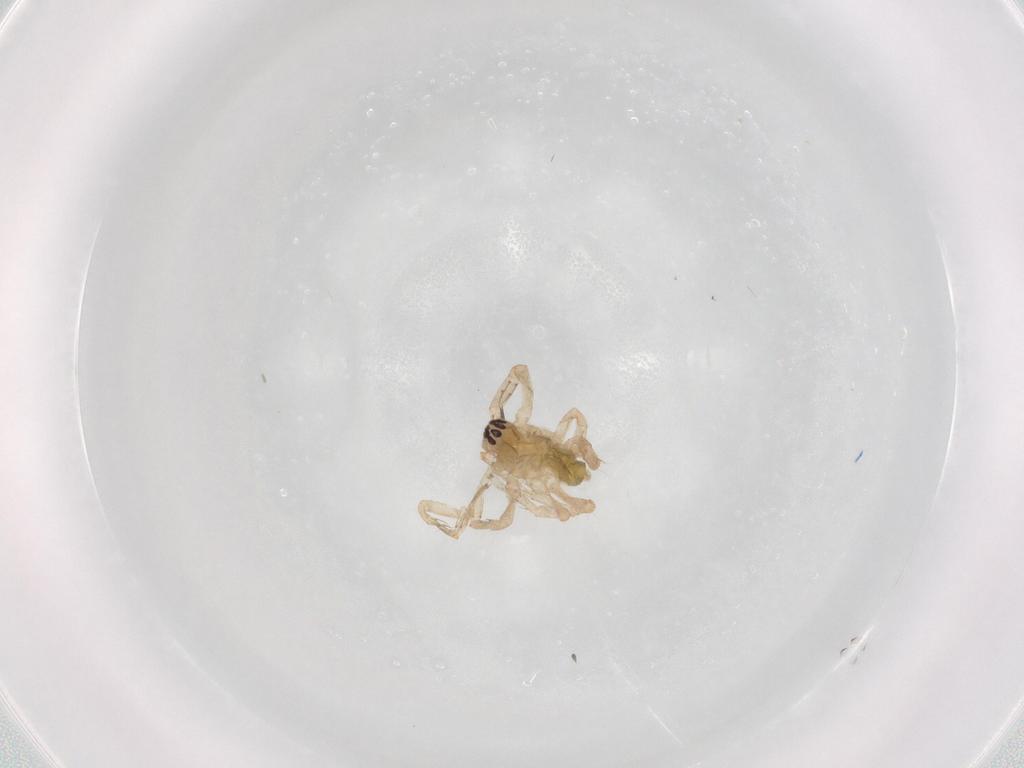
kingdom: Animalia
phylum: Arthropoda
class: Arachnida
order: Araneae
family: Anyphaenidae
